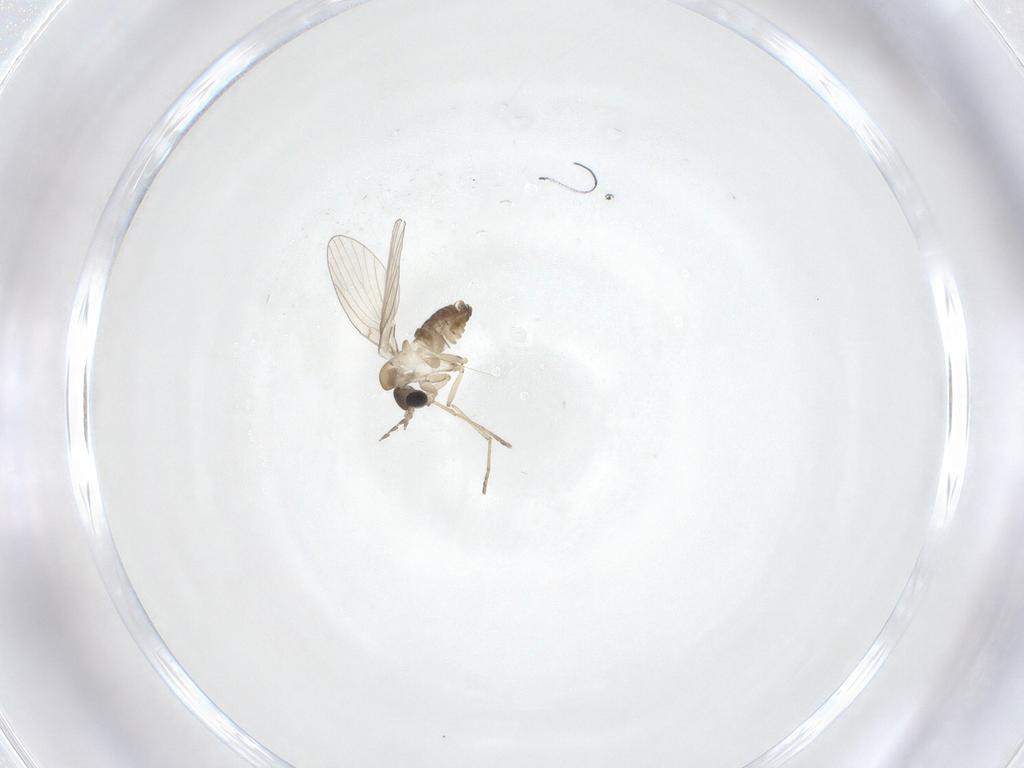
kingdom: Animalia
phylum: Arthropoda
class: Insecta
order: Diptera
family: Psychodidae
